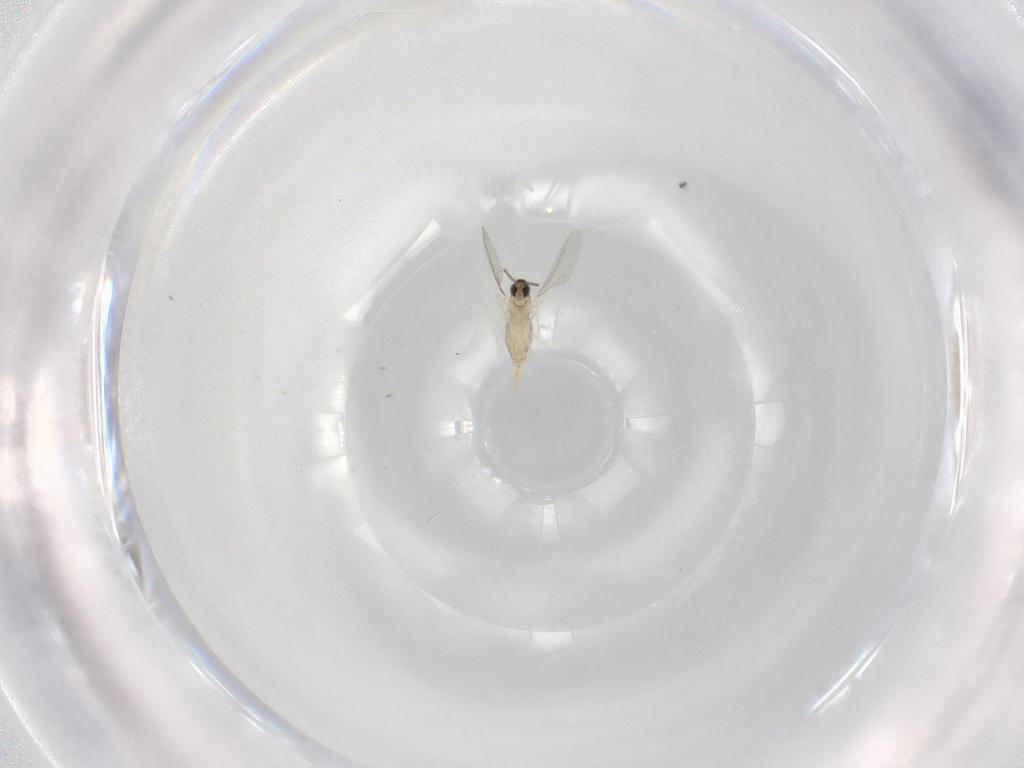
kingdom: Animalia
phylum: Arthropoda
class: Insecta
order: Diptera
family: Cecidomyiidae
